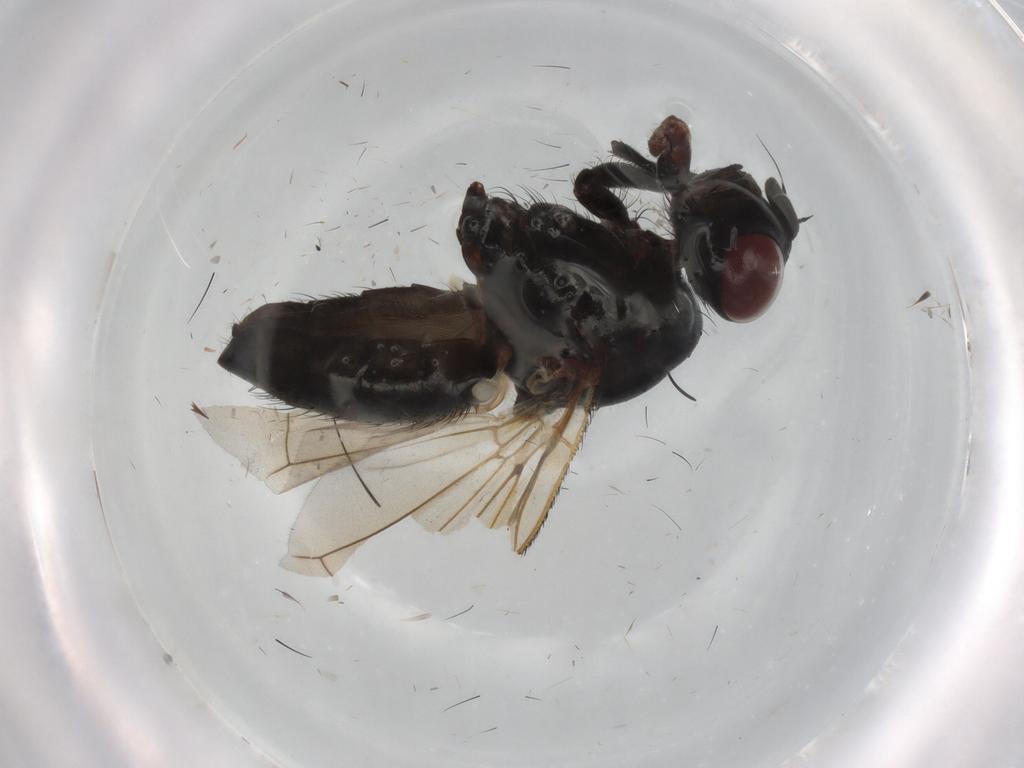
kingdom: Animalia
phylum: Arthropoda
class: Insecta
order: Diptera
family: Anthomyiidae
